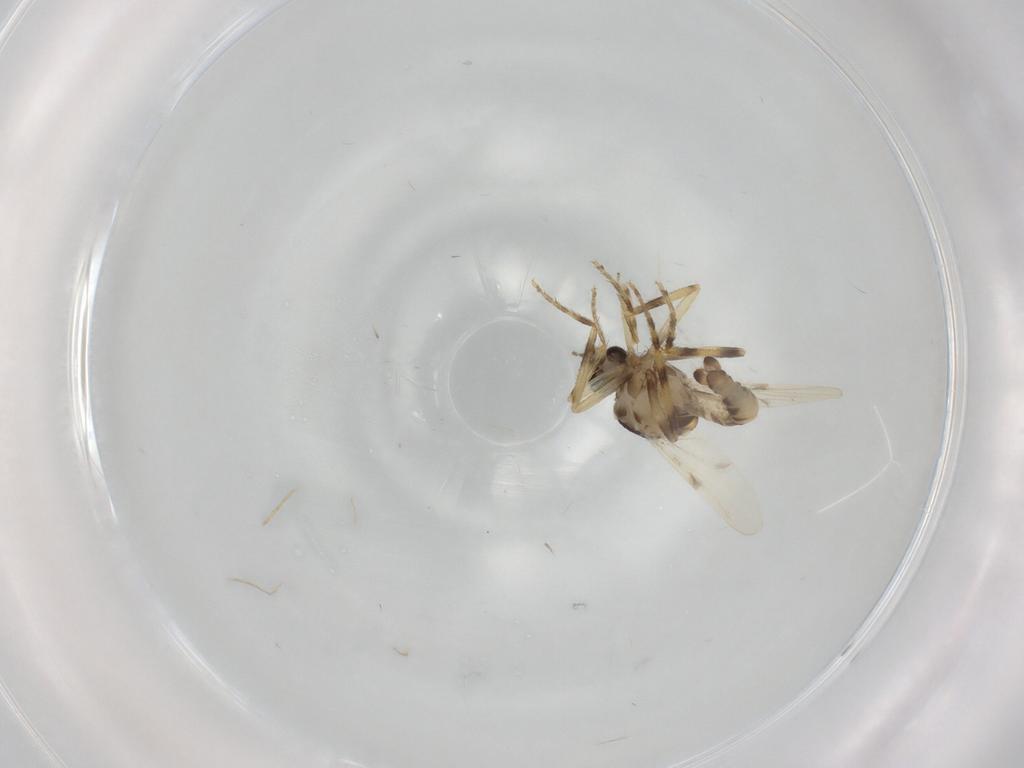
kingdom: Animalia
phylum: Arthropoda
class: Insecta
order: Diptera
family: Ceratopogonidae
